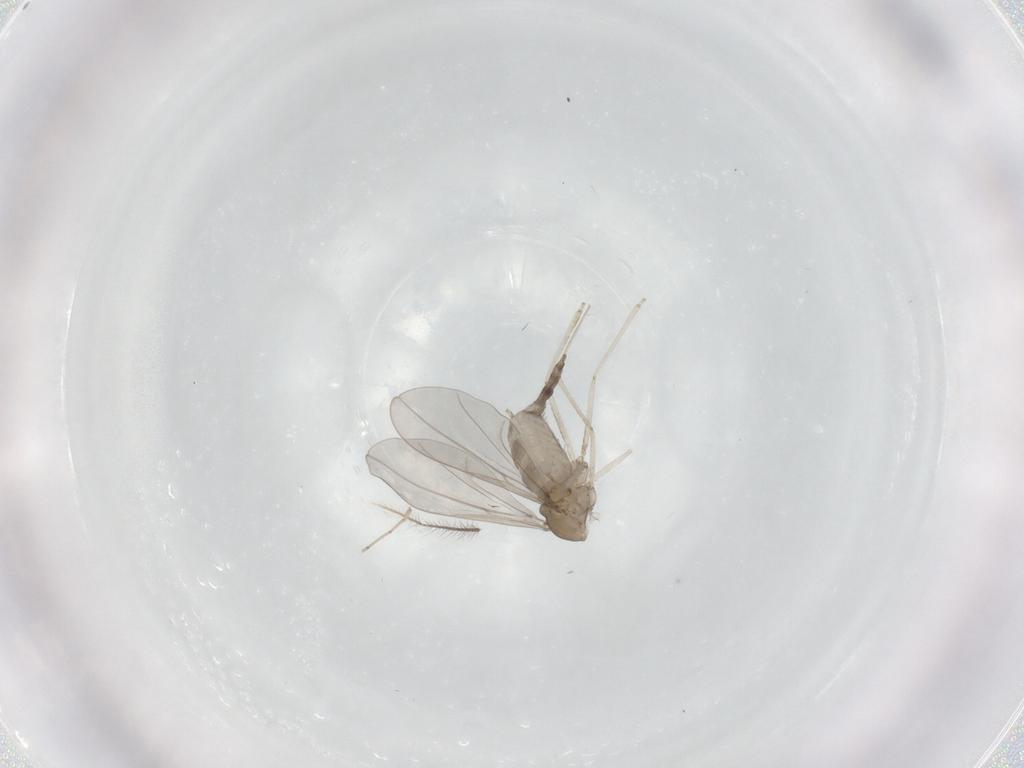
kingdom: Animalia
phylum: Arthropoda
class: Insecta
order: Diptera
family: Cecidomyiidae
